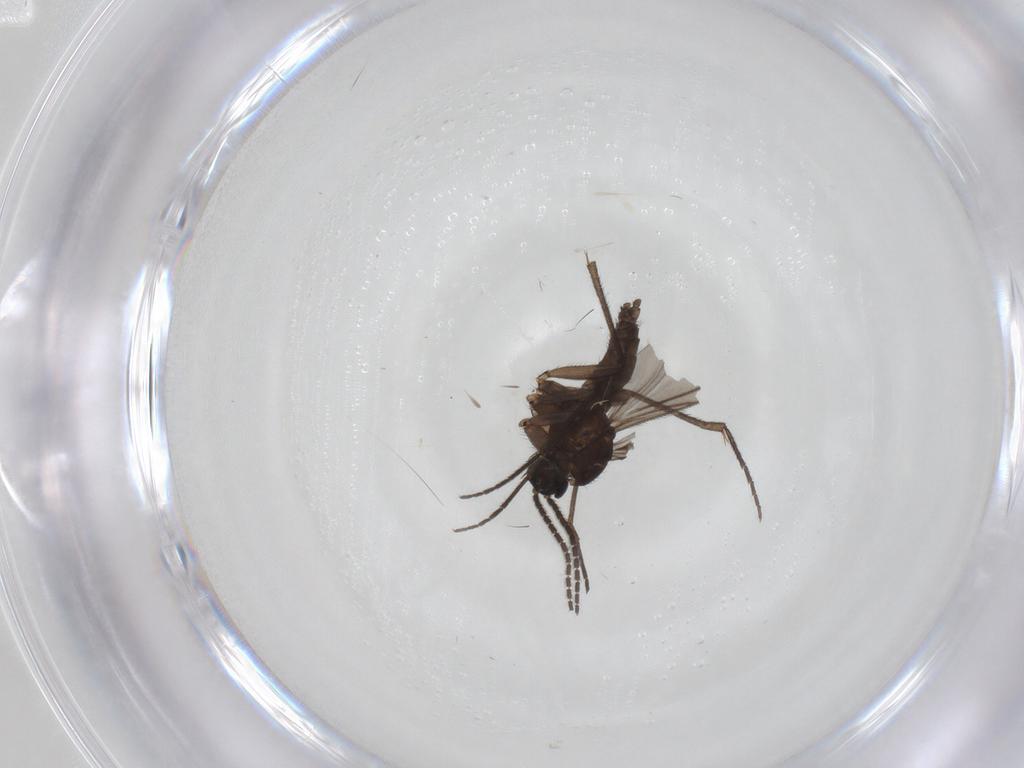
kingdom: Animalia
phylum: Arthropoda
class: Insecta
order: Diptera
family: Sciaridae
